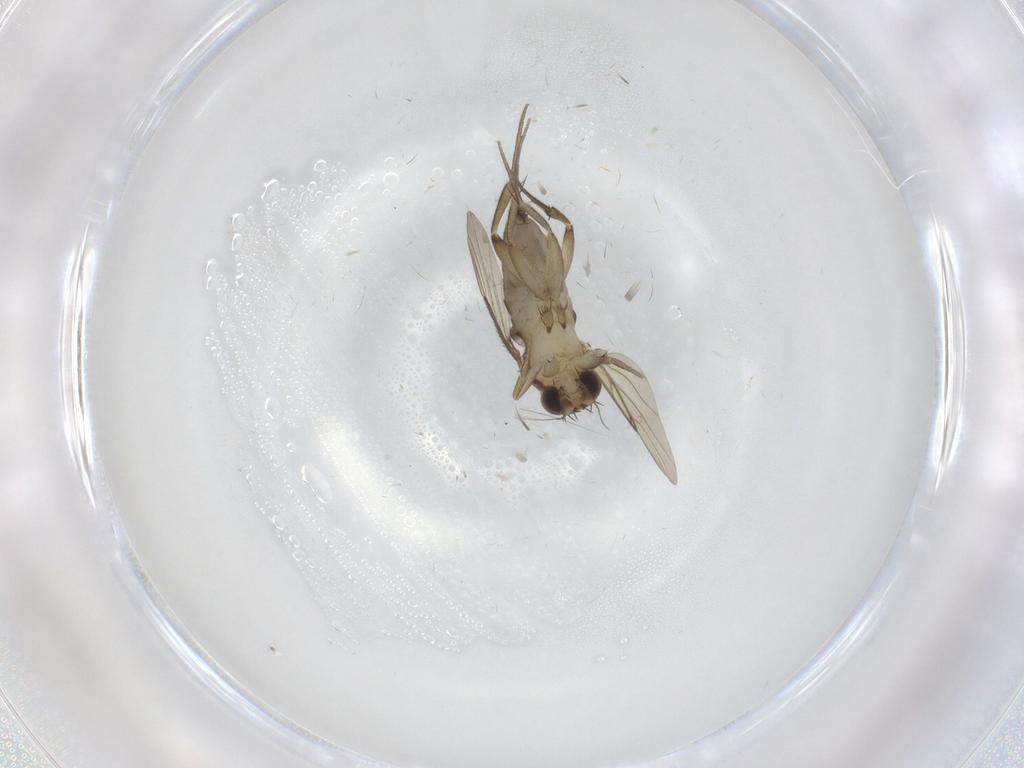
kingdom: Animalia
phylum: Arthropoda
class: Insecta
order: Diptera
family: Phoridae
